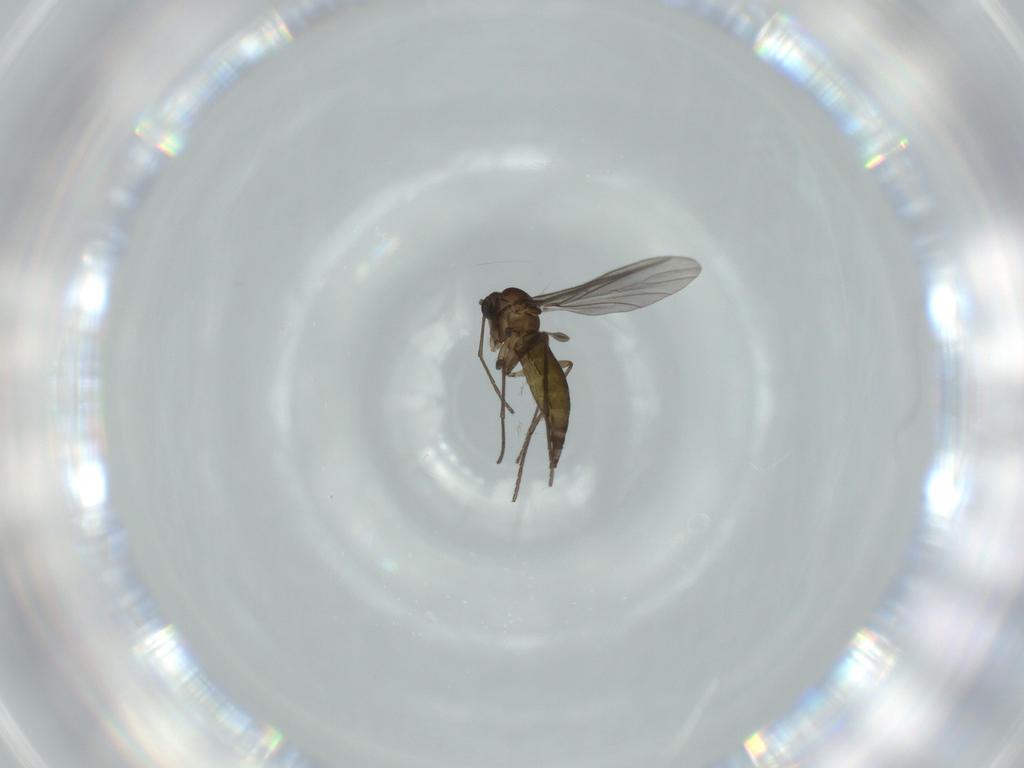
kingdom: Animalia
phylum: Arthropoda
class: Insecta
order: Diptera
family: Sciaridae
